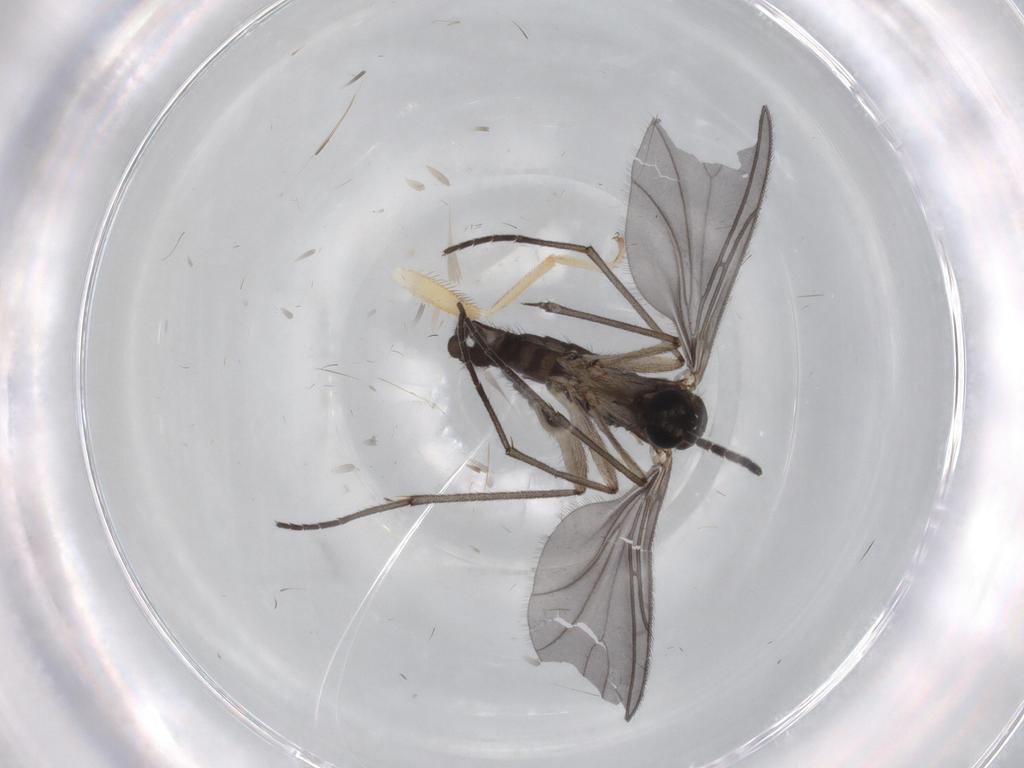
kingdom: Animalia
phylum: Arthropoda
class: Insecta
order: Diptera
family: Sciaridae
